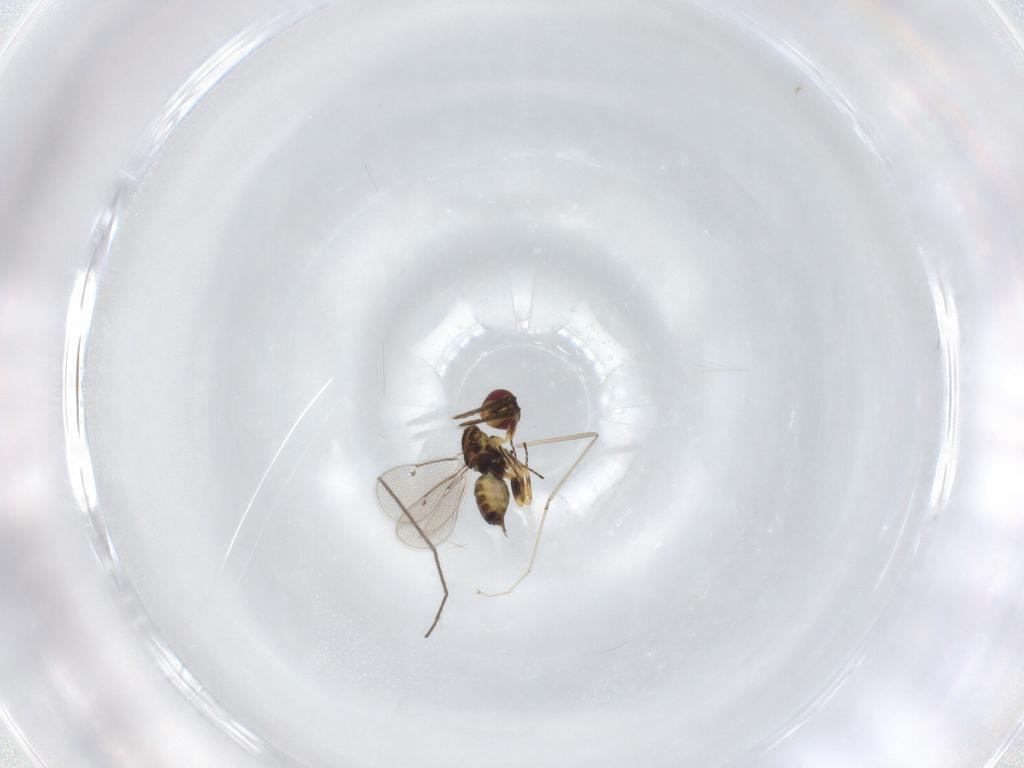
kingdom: Animalia
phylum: Arthropoda
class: Insecta
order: Hymenoptera
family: Eulophidae
